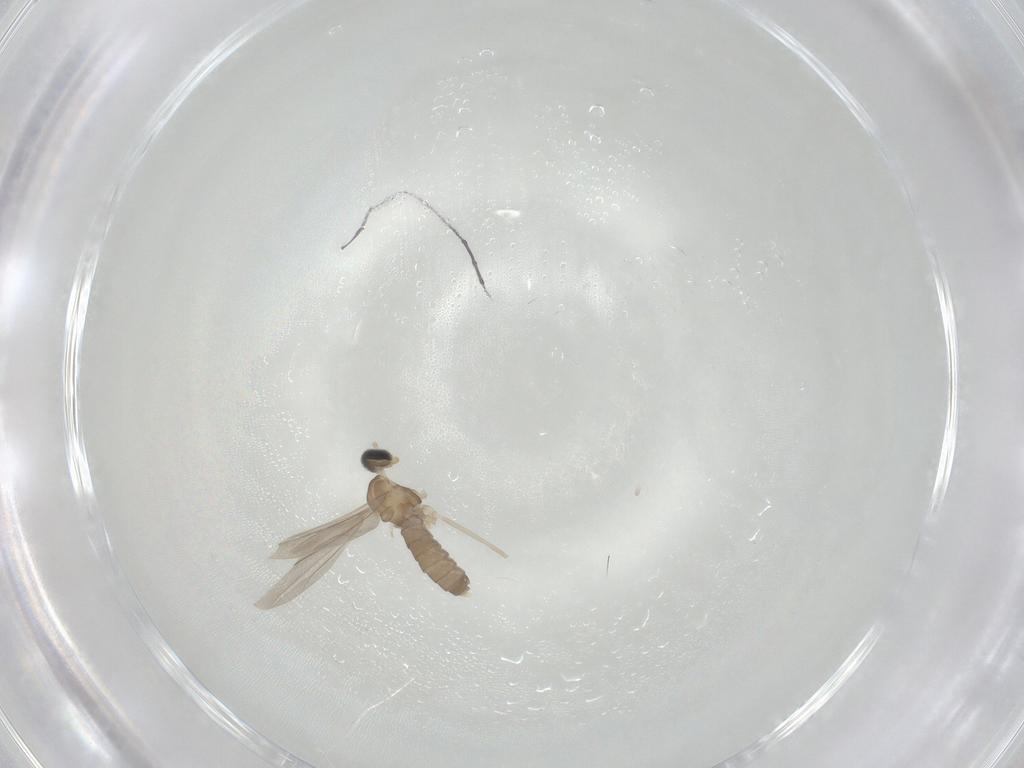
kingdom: Animalia
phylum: Arthropoda
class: Insecta
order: Diptera
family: Cecidomyiidae
